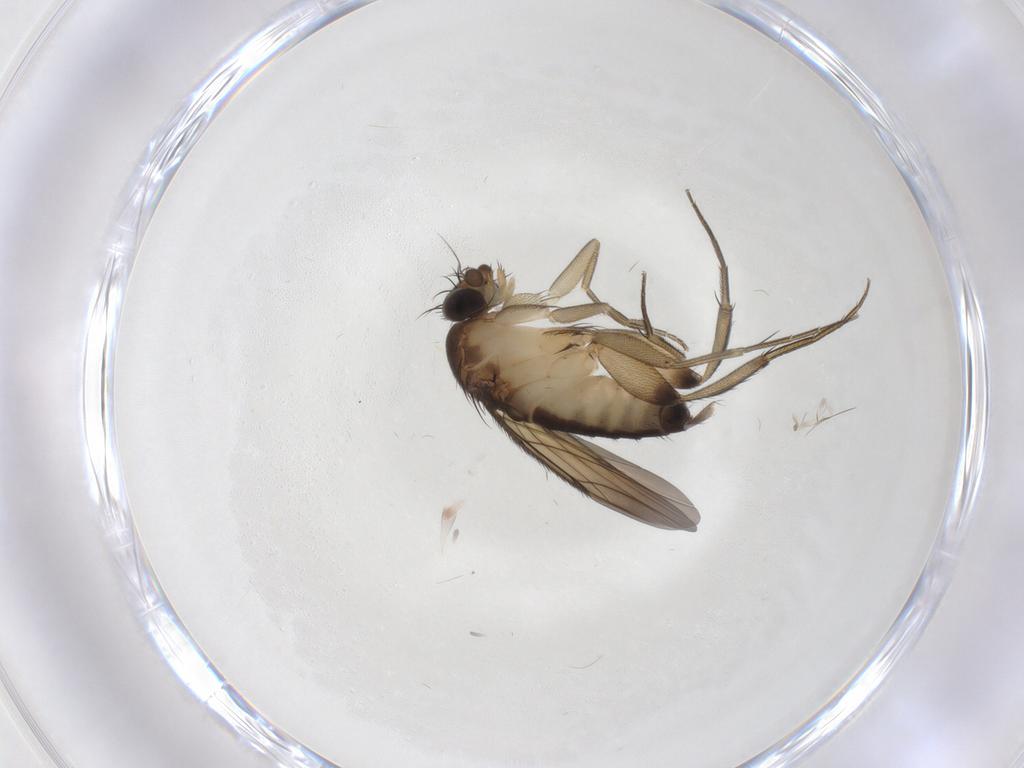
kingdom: Animalia
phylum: Arthropoda
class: Insecta
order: Diptera
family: Phoridae
